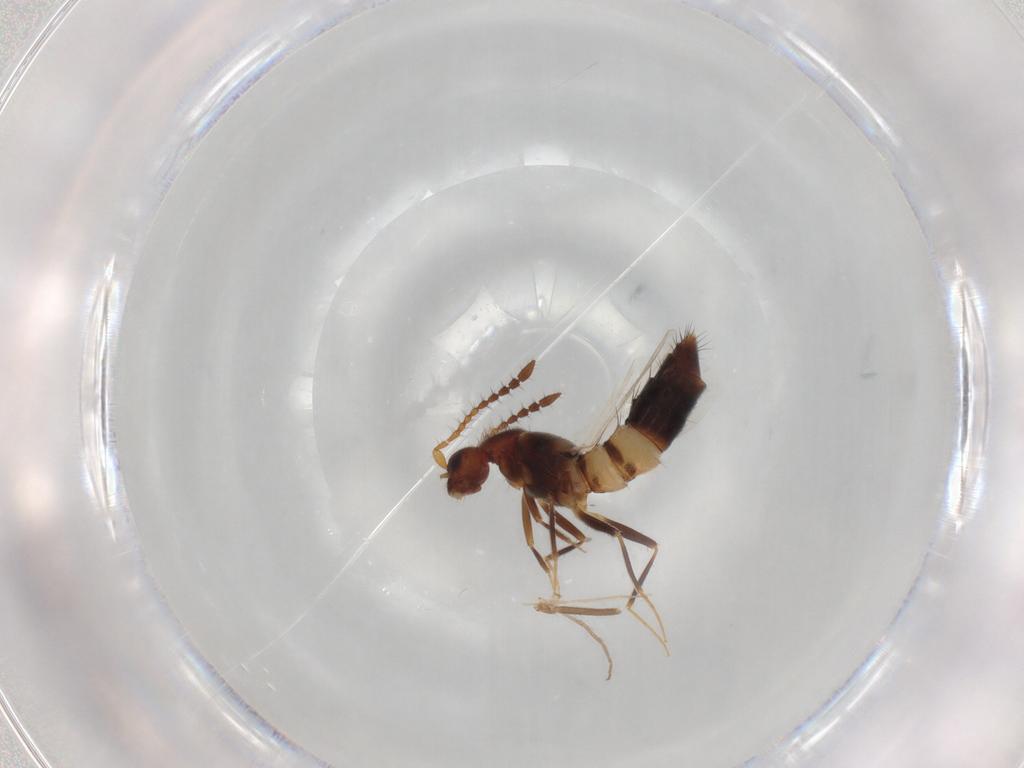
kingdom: Animalia
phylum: Arthropoda
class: Insecta
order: Coleoptera
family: Staphylinidae
